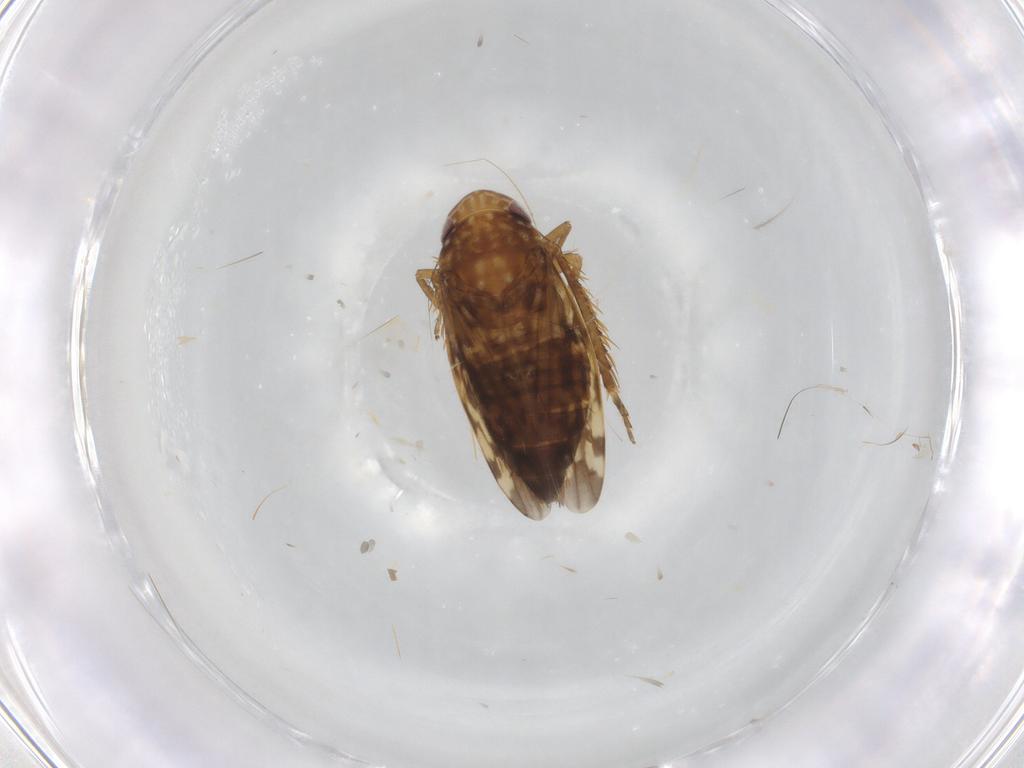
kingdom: Animalia
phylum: Arthropoda
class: Insecta
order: Hemiptera
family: Cicadellidae
